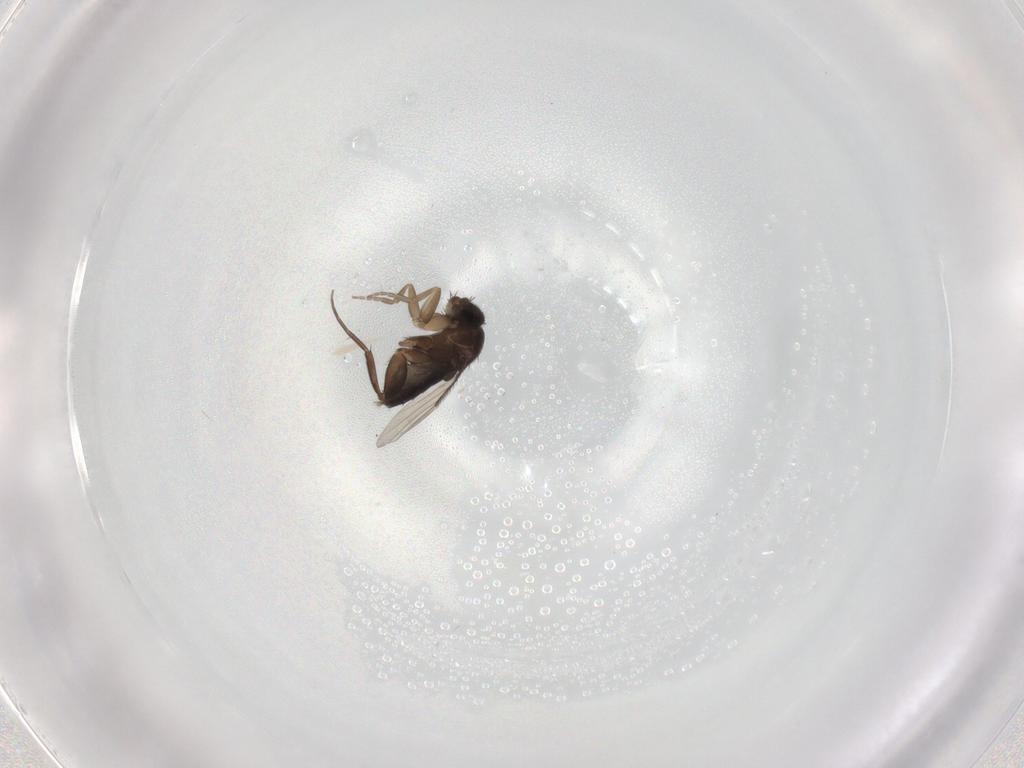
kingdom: Animalia
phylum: Arthropoda
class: Insecta
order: Diptera
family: Phoridae
